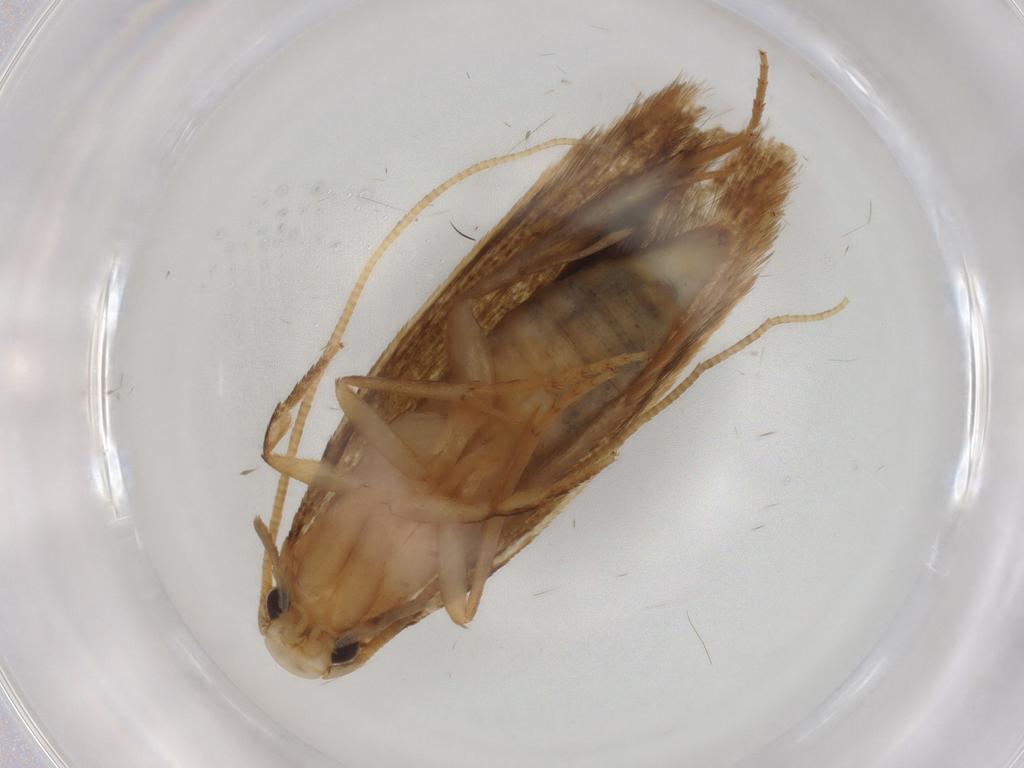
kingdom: Animalia
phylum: Arthropoda
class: Insecta
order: Lepidoptera
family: Tineidae
